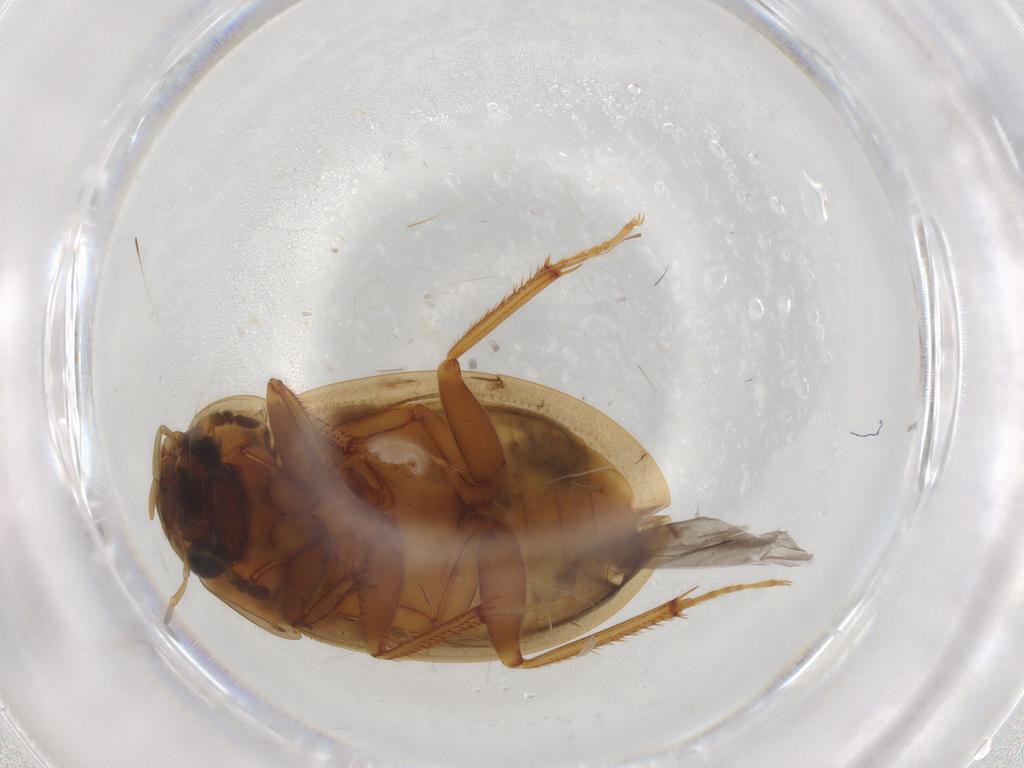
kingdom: Animalia
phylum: Arthropoda
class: Insecta
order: Coleoptera
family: Hydrophilidae
